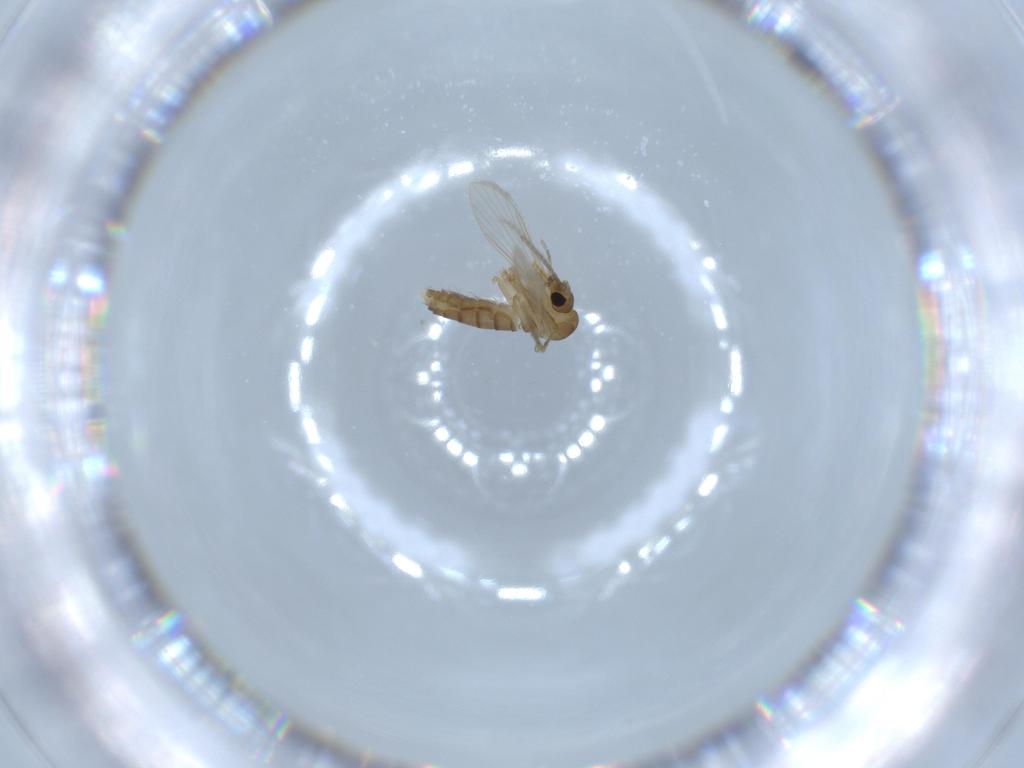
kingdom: Animalia
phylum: Arthropoda
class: Insecta
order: Diptera
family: Psychodidae
